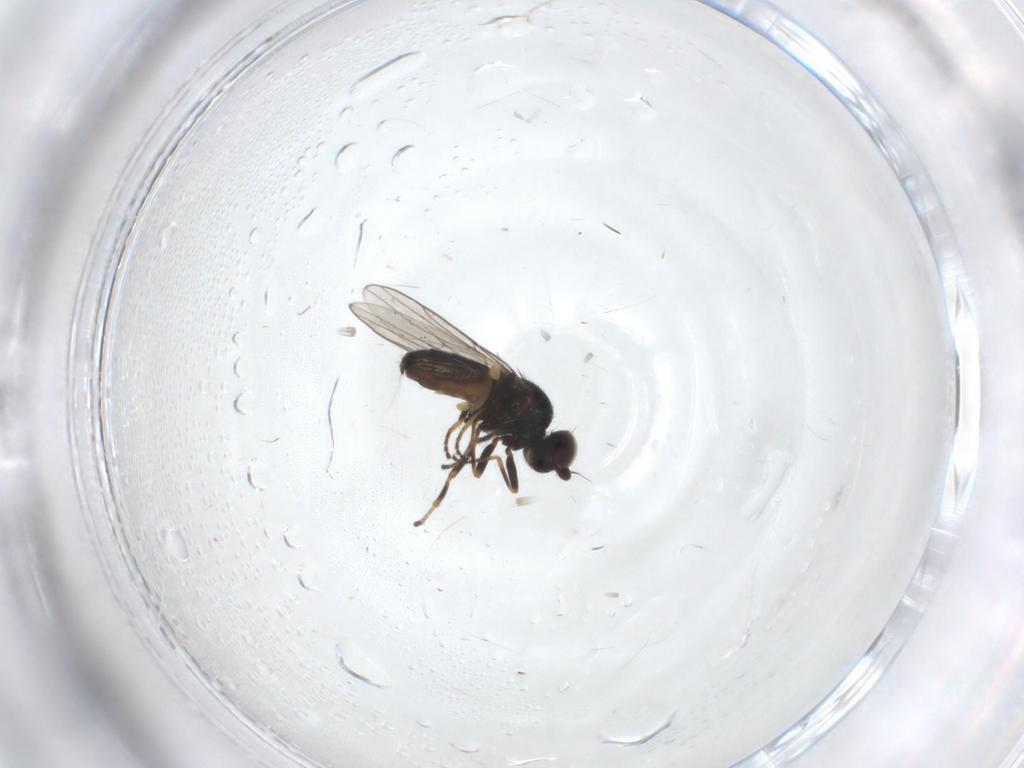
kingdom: Animalia
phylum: Arthropoda
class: Insecta
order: Diptera
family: Chloropidae
